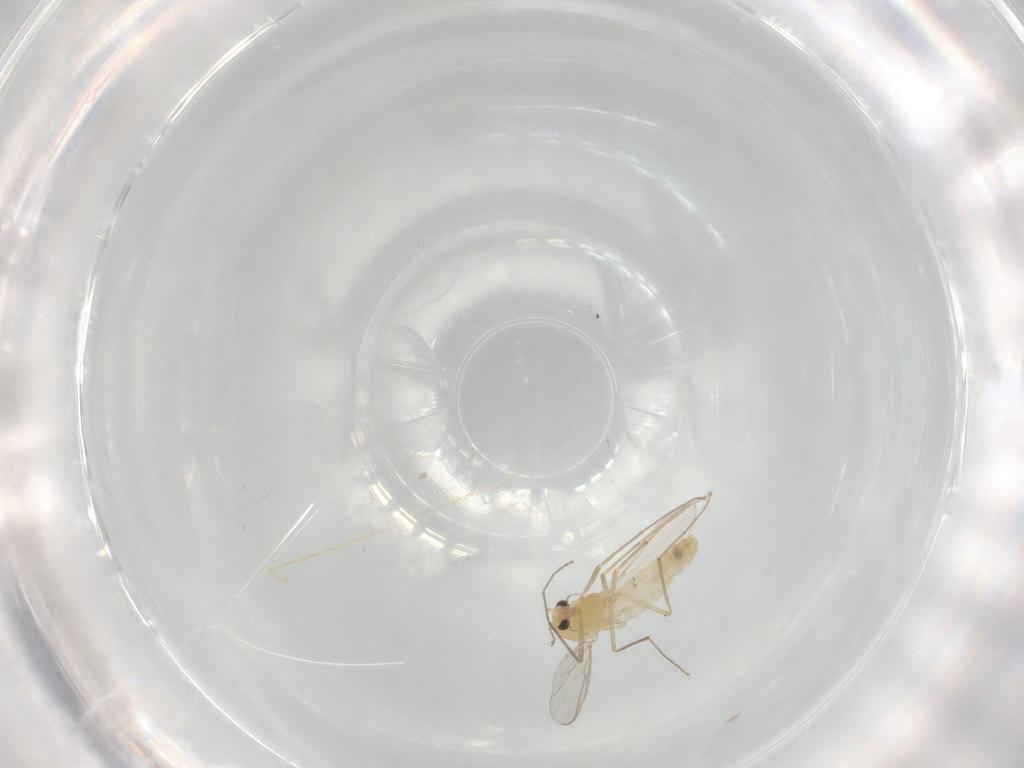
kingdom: Animalia
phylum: Arthropoda
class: Insecta
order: Diptera
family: Chironomidae
